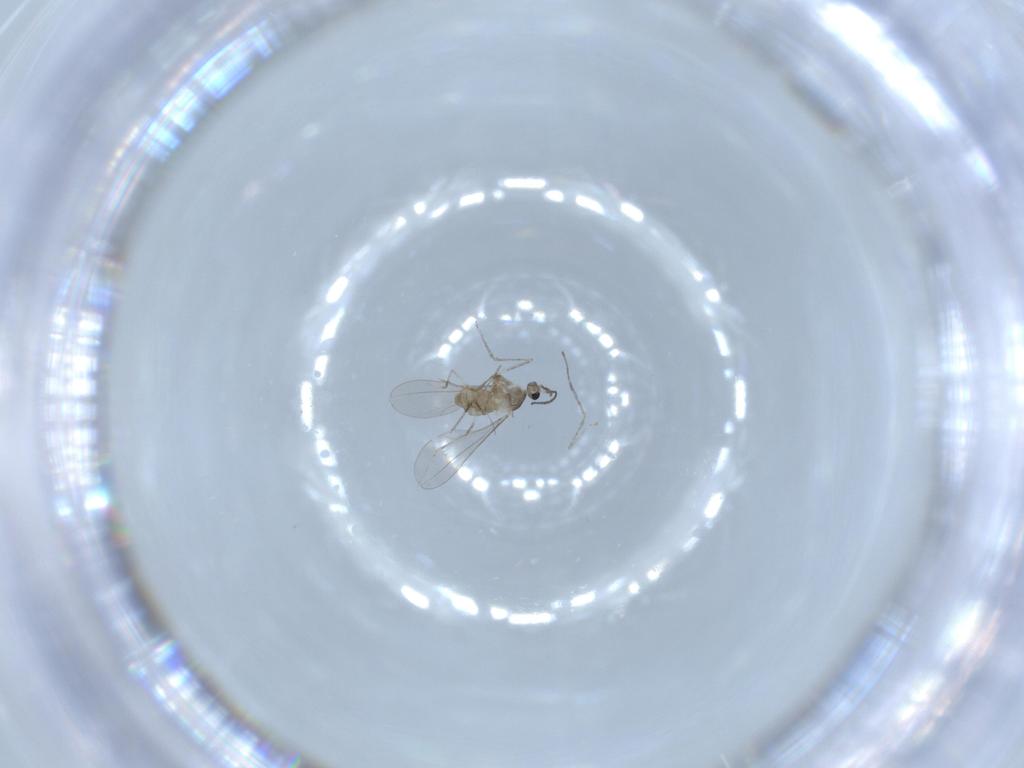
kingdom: Animalia
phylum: Arthropoda
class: Insecta
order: Diptera
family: Cecidomyiidae
